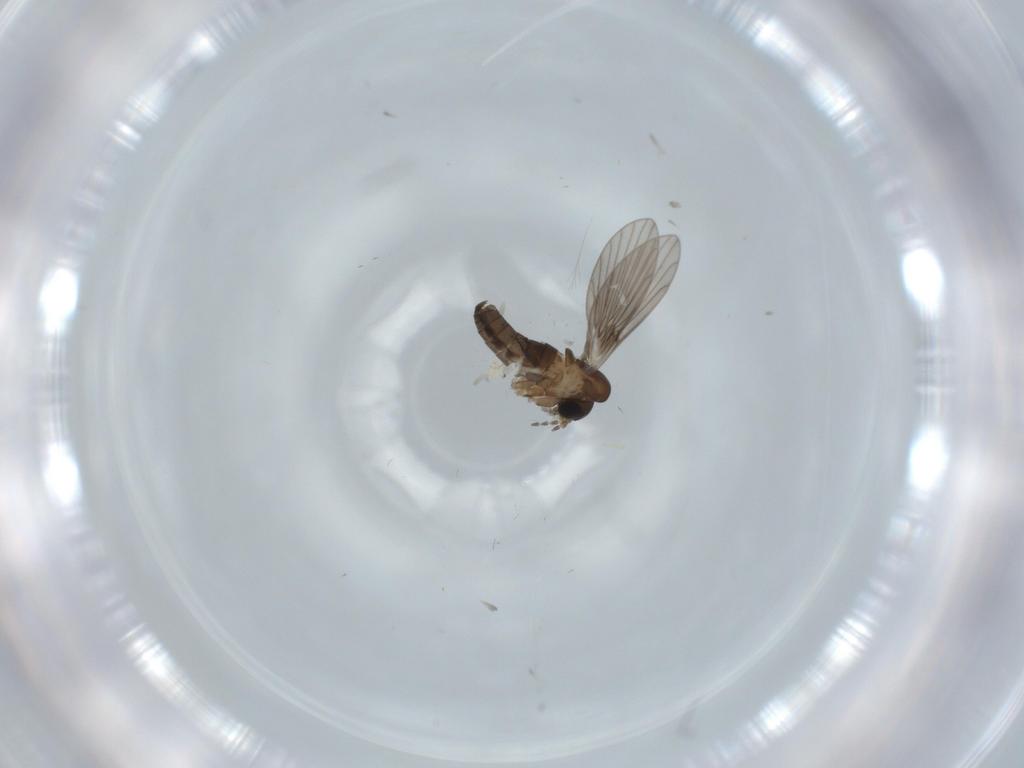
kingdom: Animalia
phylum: Arthropoda
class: Insecta
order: Diptera
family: Psychodidae
